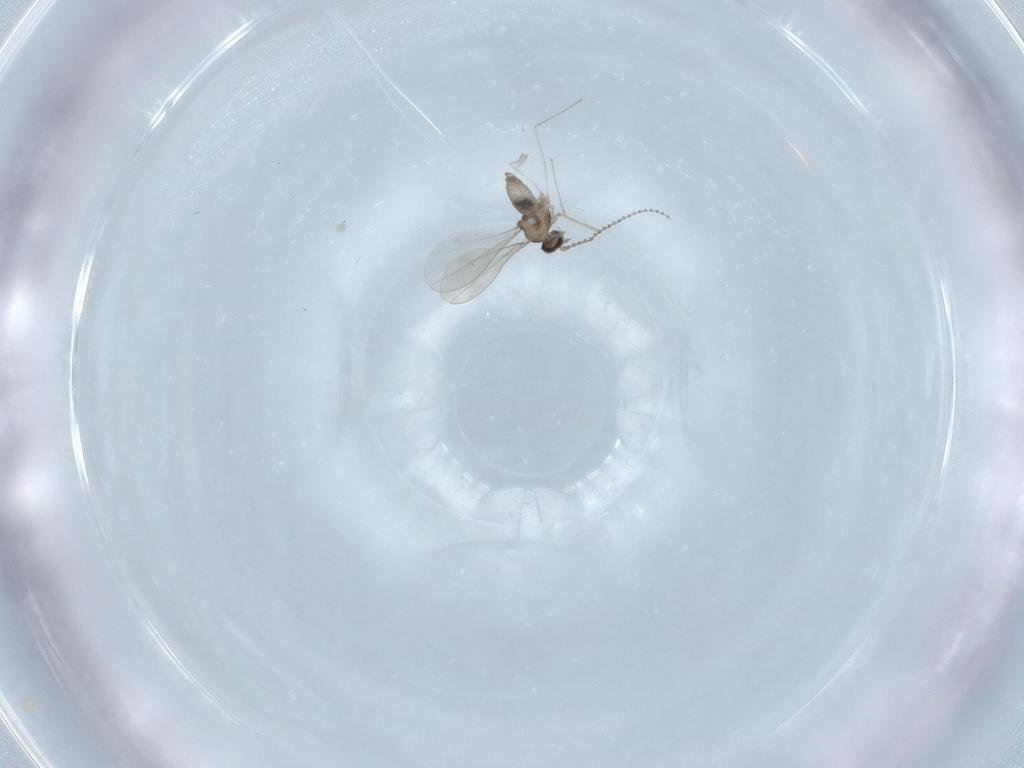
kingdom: Animalia
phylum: Arthropoda
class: Insecta
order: Diptera
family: Cecidomyiidae
